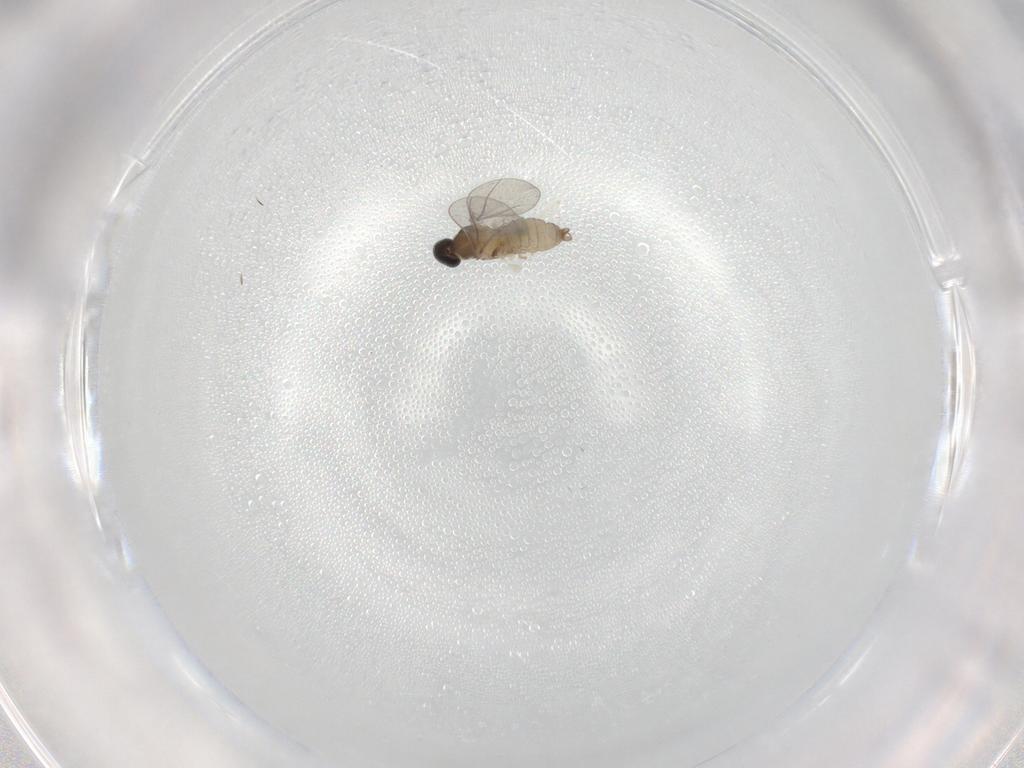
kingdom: Animalia
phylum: Arthropoda
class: Insecta
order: Diptera
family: Cecidomyiidae
